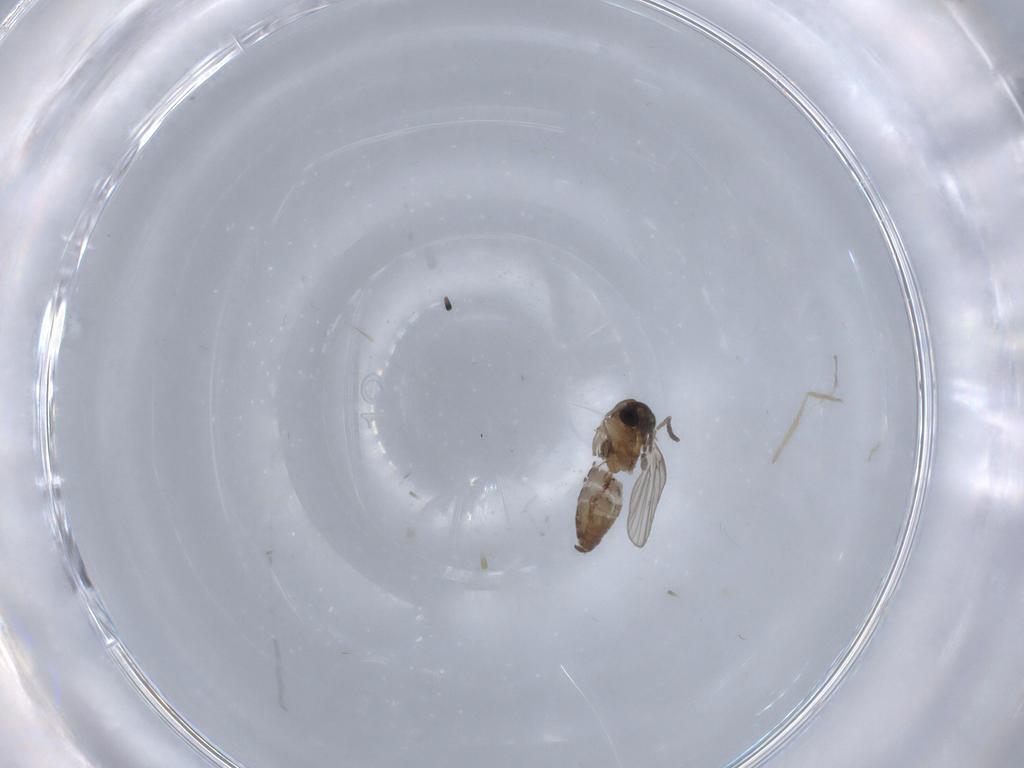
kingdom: Animalia
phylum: Arthropoda
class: Insecta
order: Diptera
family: Psychodidae
